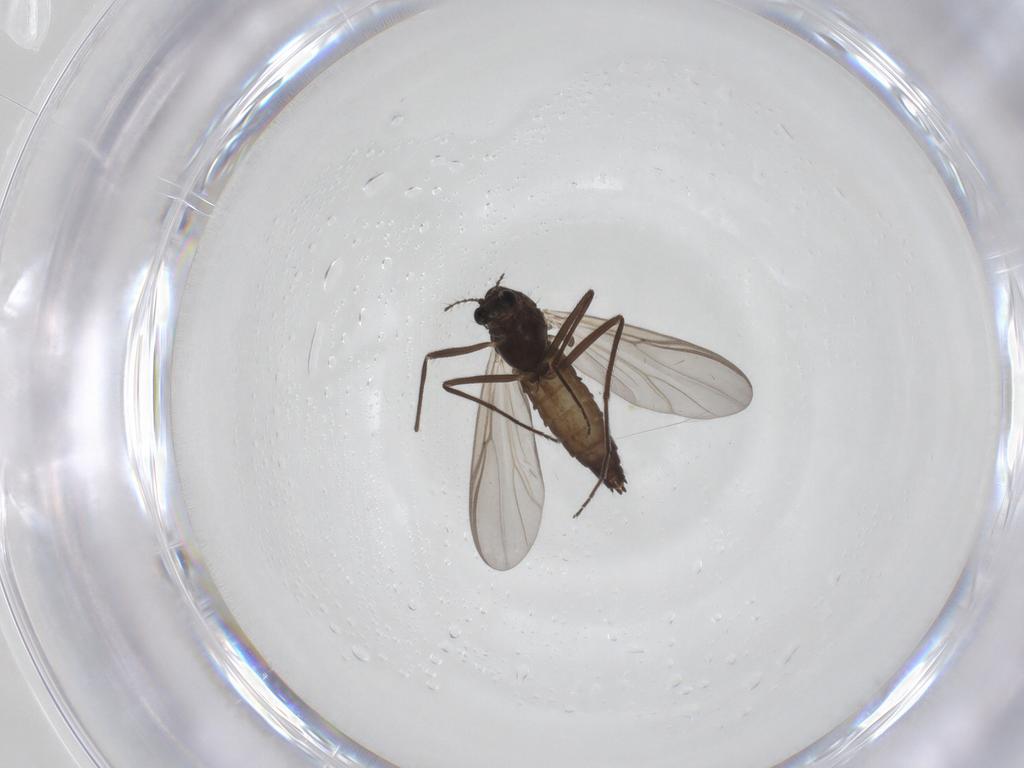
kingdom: Animalia
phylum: Arthropoda
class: Insecta
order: Diptera
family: Chironomidae
